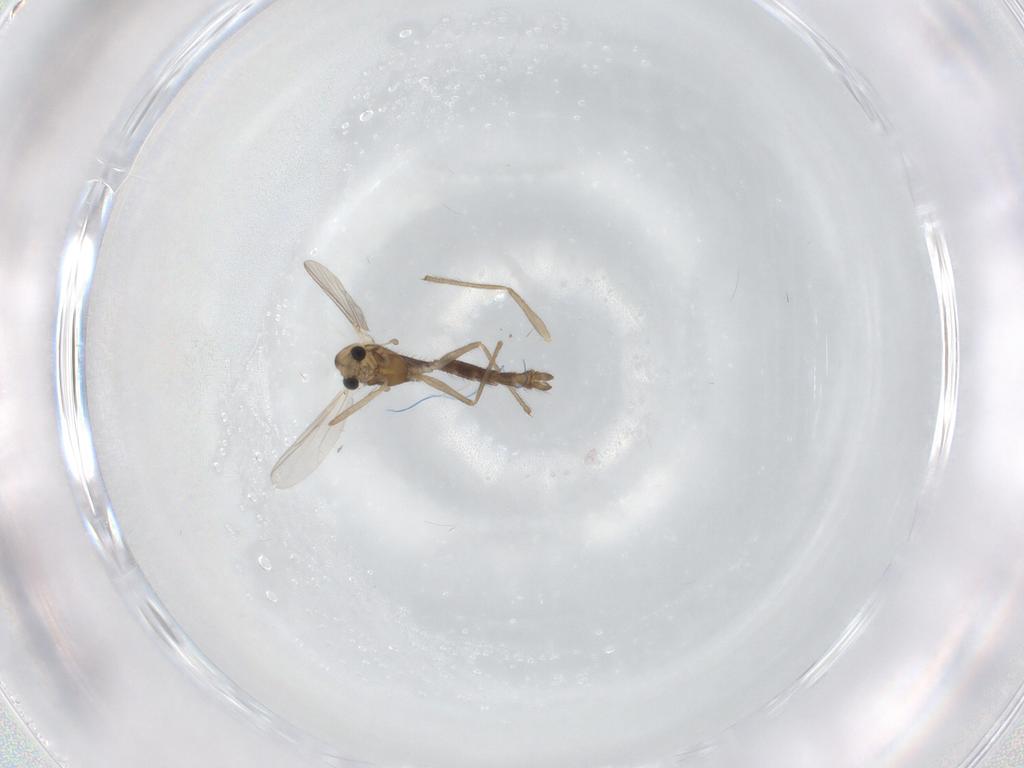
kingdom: Animalia
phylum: Arthropoda
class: Insecta
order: Diptera
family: Chironomidae
